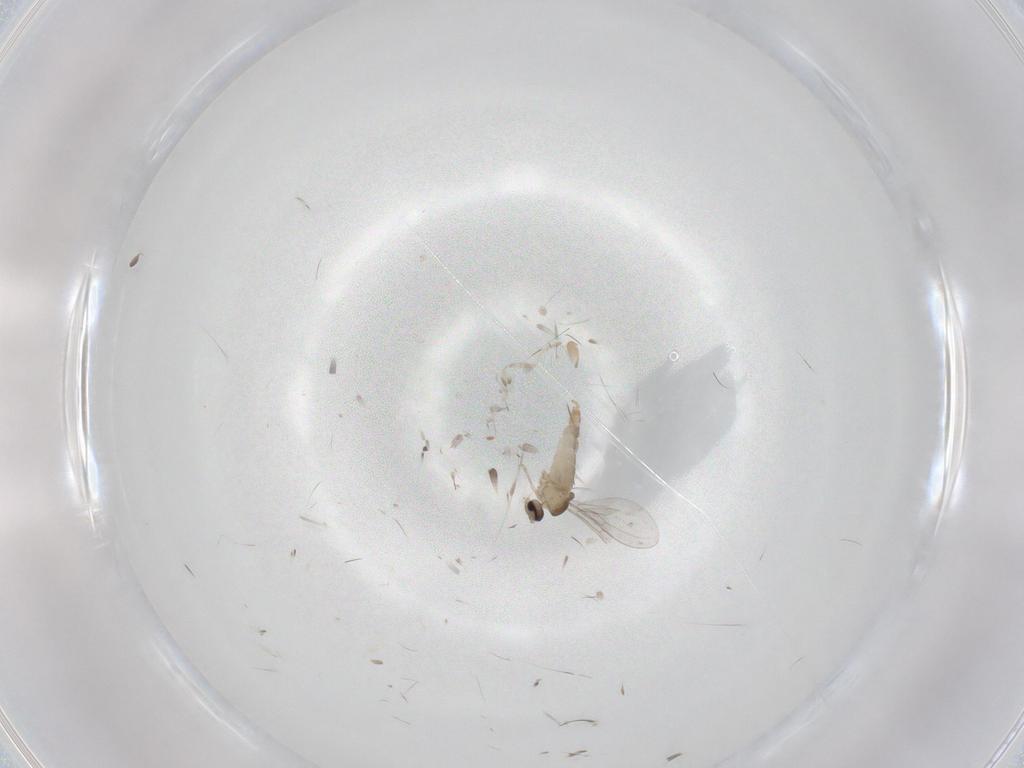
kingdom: Animalia
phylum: Arthropoda
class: Insecta
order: Diptera
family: Cecidomyiidae
